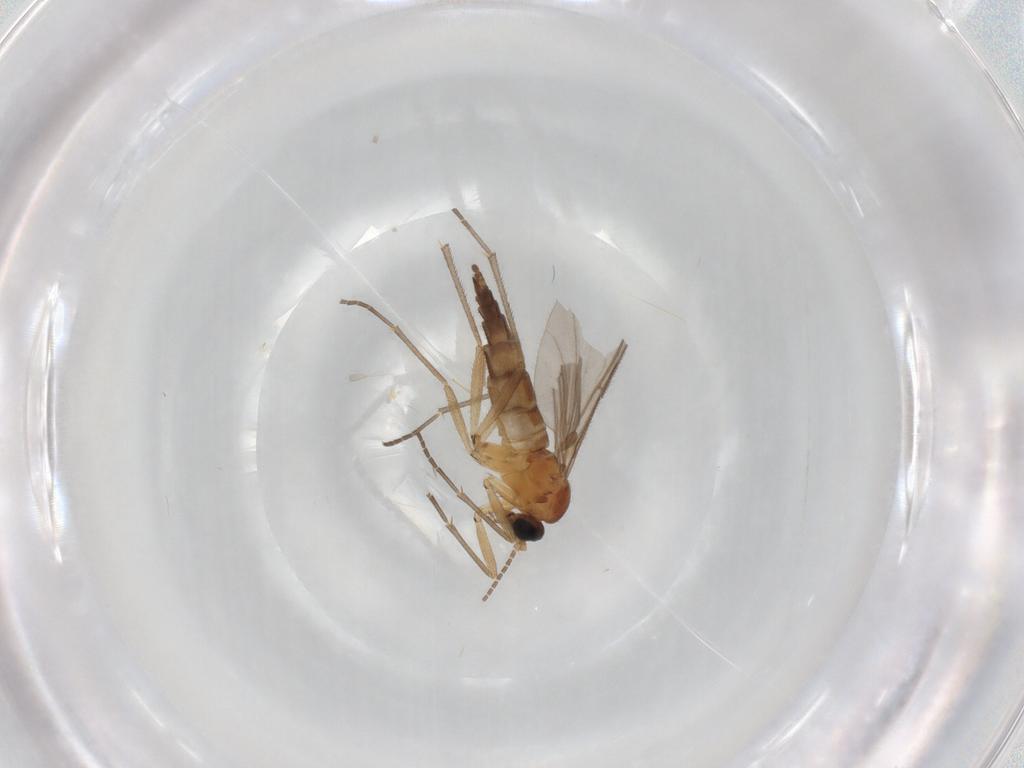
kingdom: Animalia
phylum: Arthropoda
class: Insecta
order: Diptera
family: Sciaridae
